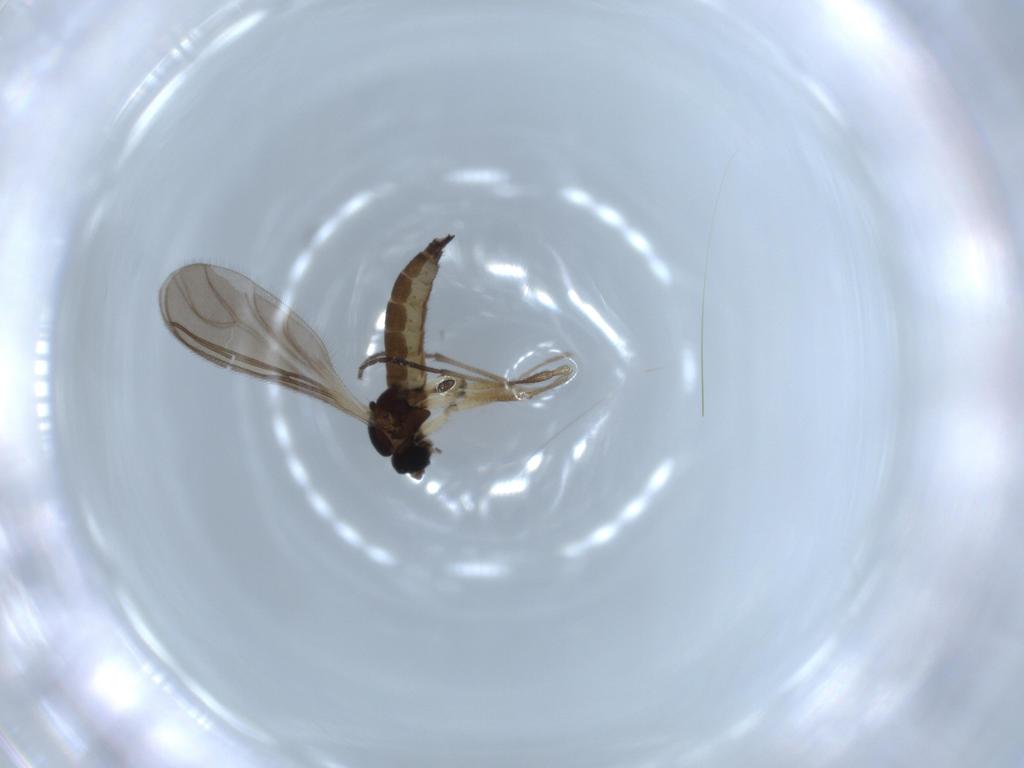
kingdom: Animalia
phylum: Arthropoda
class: Insecta
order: Diptera
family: Sciaridae
